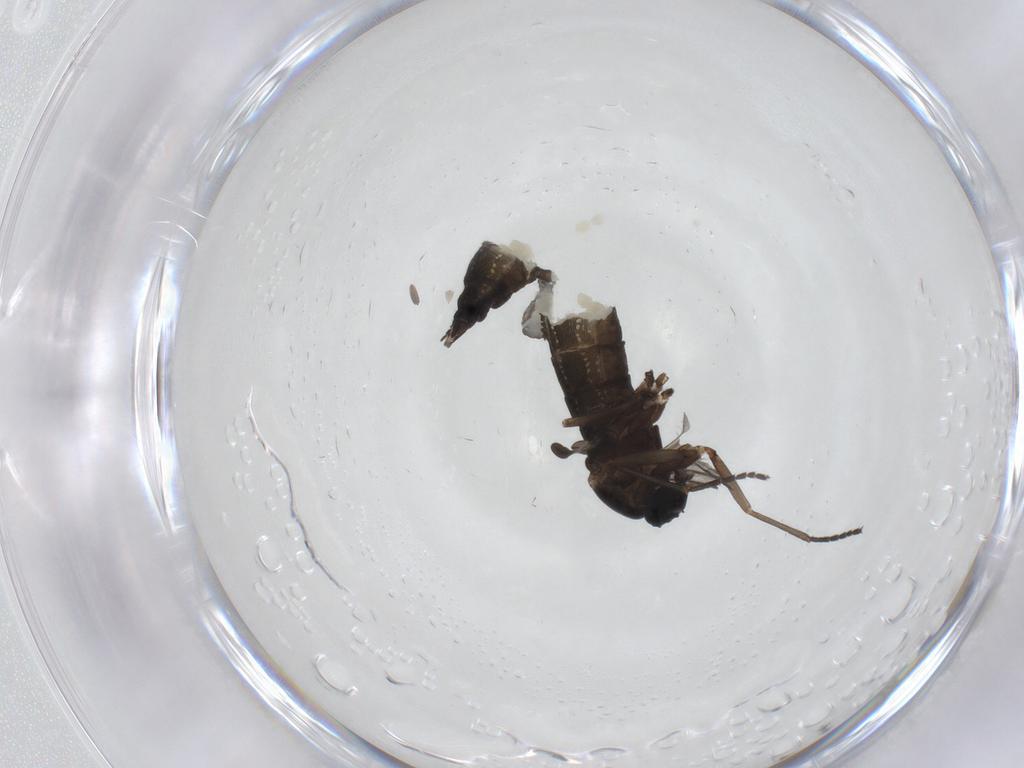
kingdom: Animalia
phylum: Arthropoda
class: Insecta
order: Diptera
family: Sciaridae
